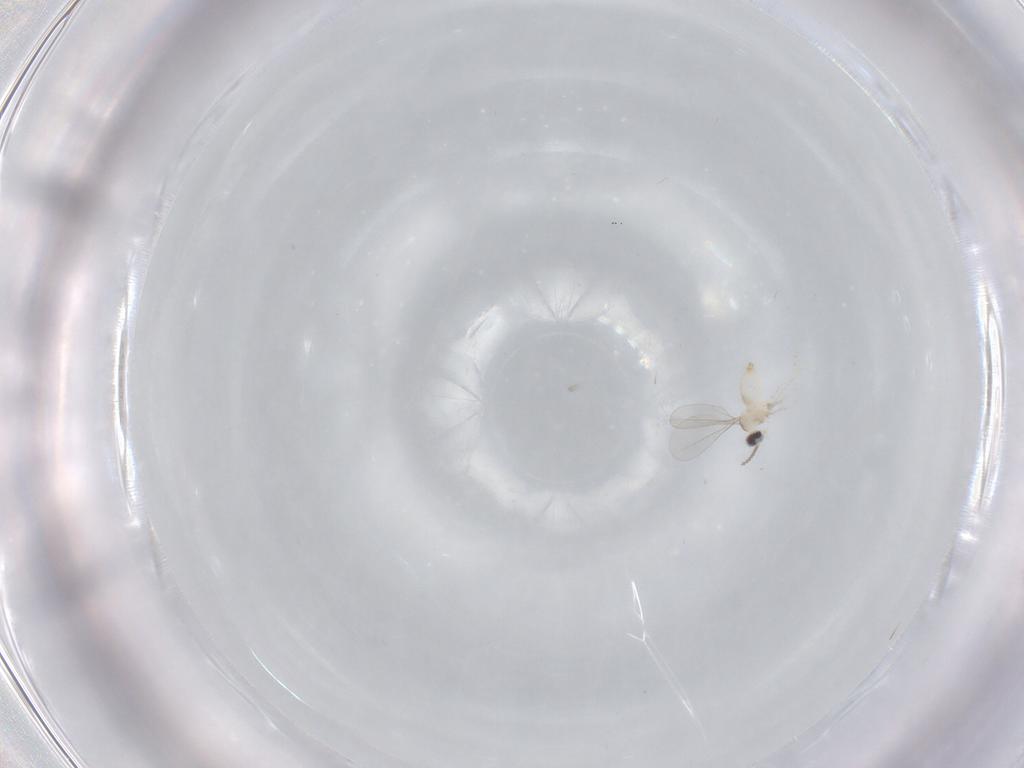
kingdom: Animalia
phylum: Arthropoda
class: Insecta
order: Diptera
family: Cecidomyiidae
